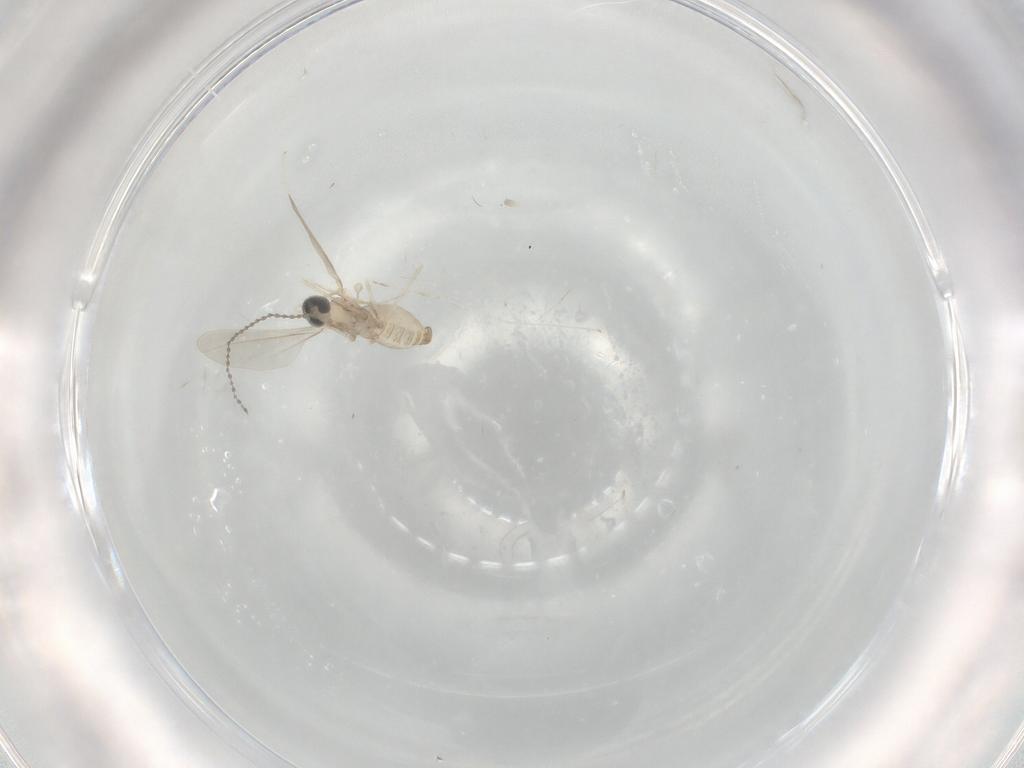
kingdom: Animalia
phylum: Arthropoda
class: Insecta
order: Diptera
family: Cecidomyiidae
